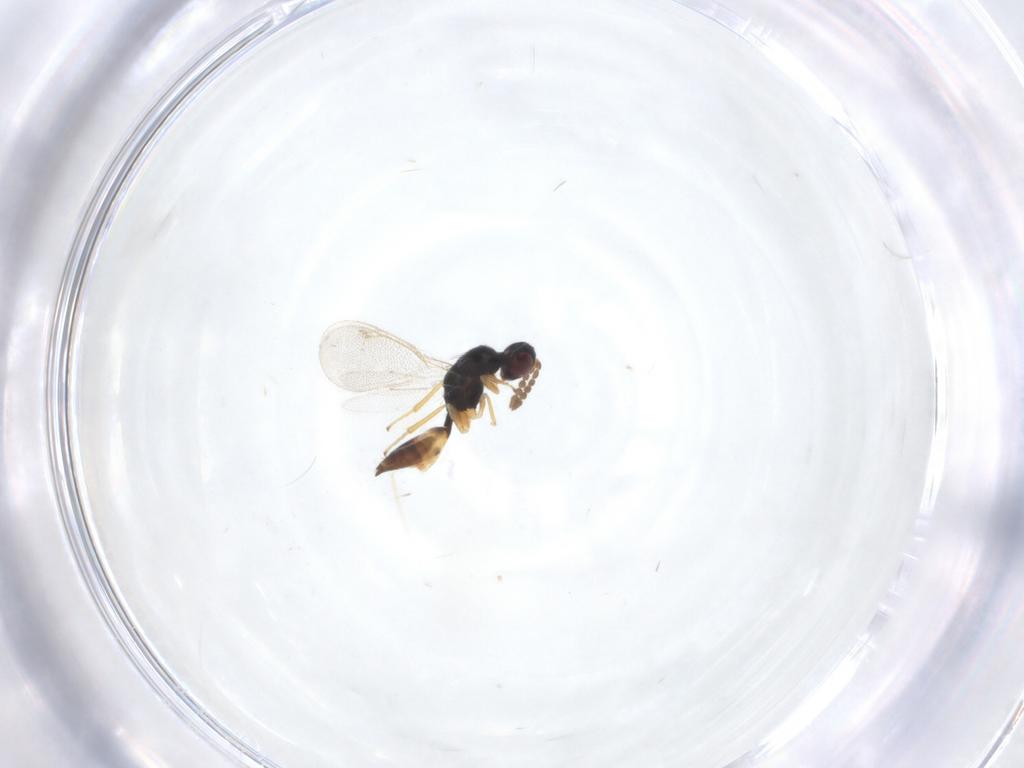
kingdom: Animalia
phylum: Arthropoda
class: Insecta
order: Hymenoptera
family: Eulophidae
